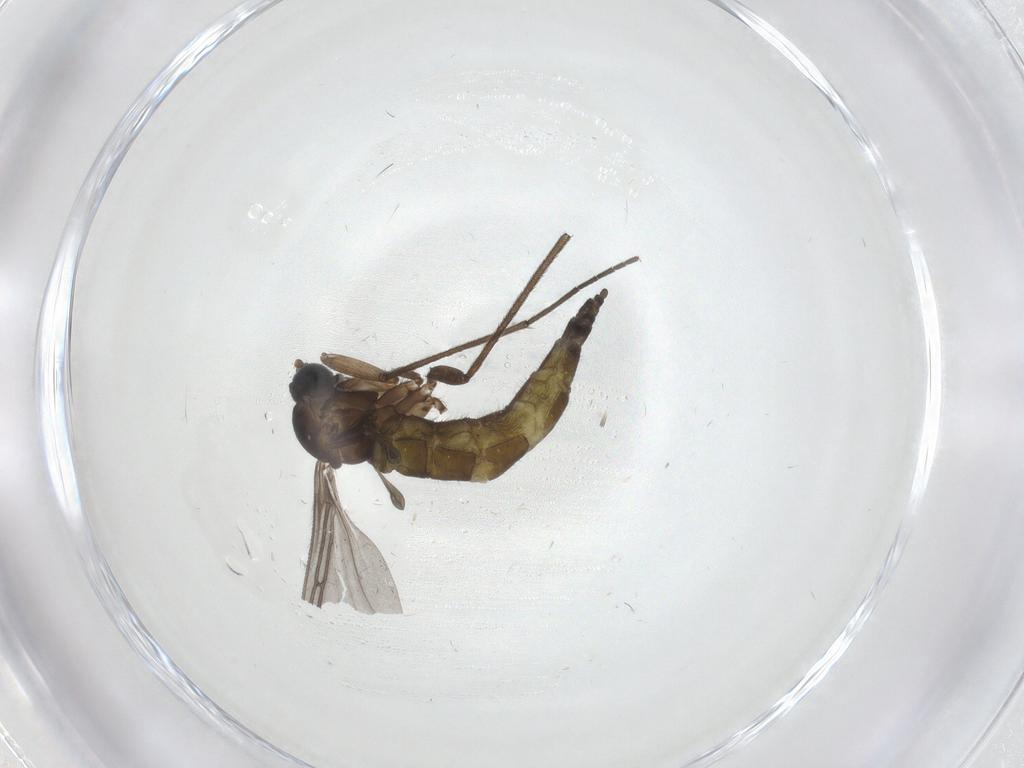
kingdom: Animalia
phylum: Arthropoda
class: Insecta
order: Diptera
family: Sciaridae
